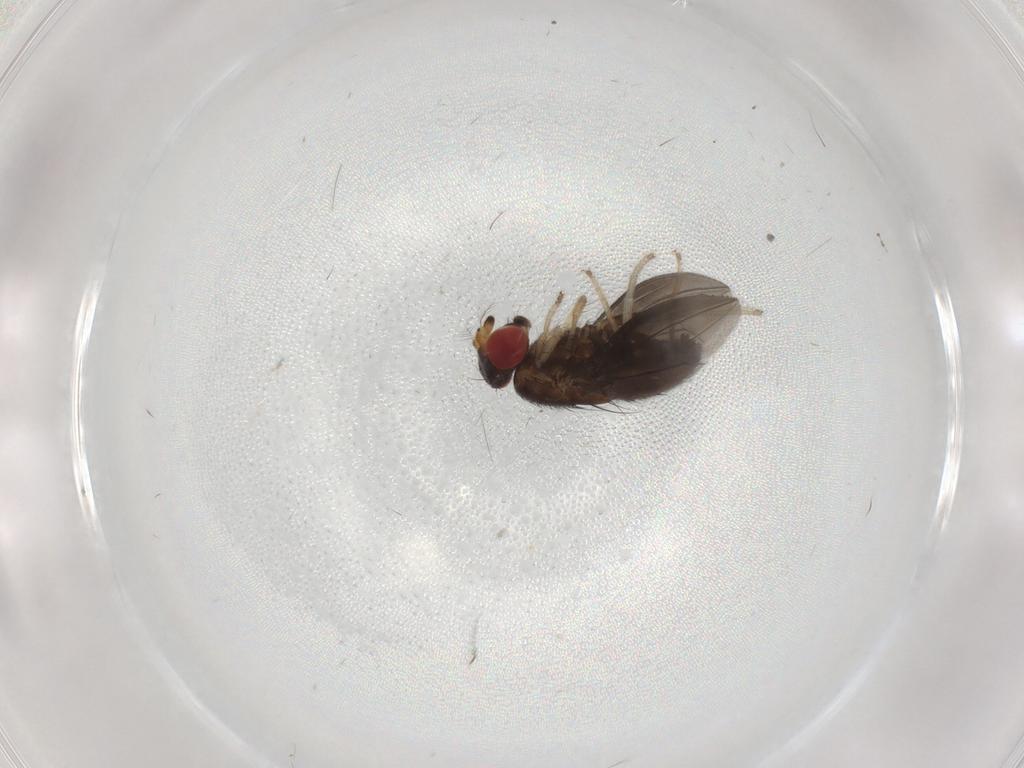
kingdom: Animalia
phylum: Arthropoda
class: Insecta
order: Diptera
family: Drosophilidae
